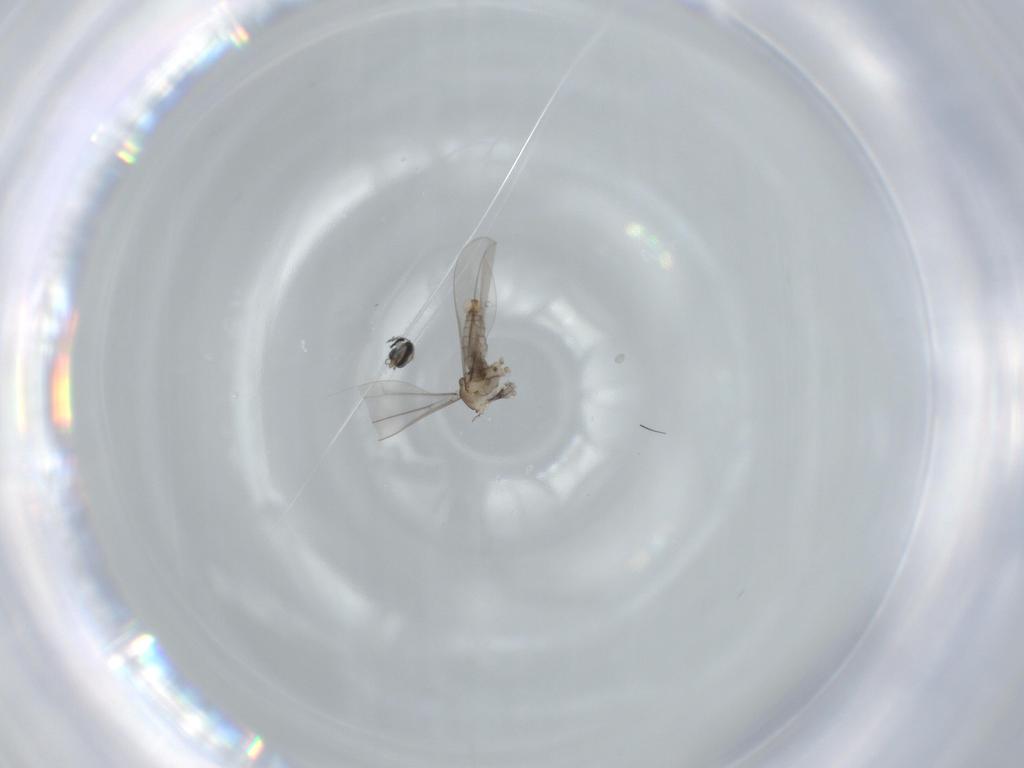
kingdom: Animalia
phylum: Arthropoda
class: Insecta
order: Diptera
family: Cecidomyiidae
